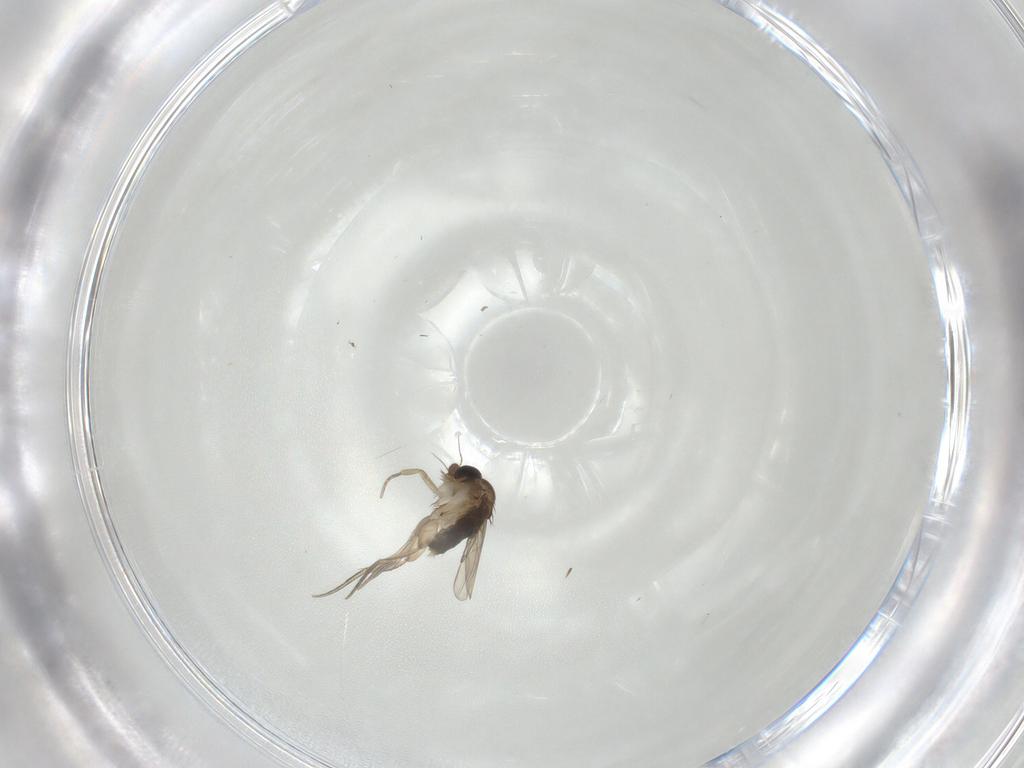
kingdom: Animalia
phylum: Arthropoda
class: Insecta
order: Diptera
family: Phoridae
